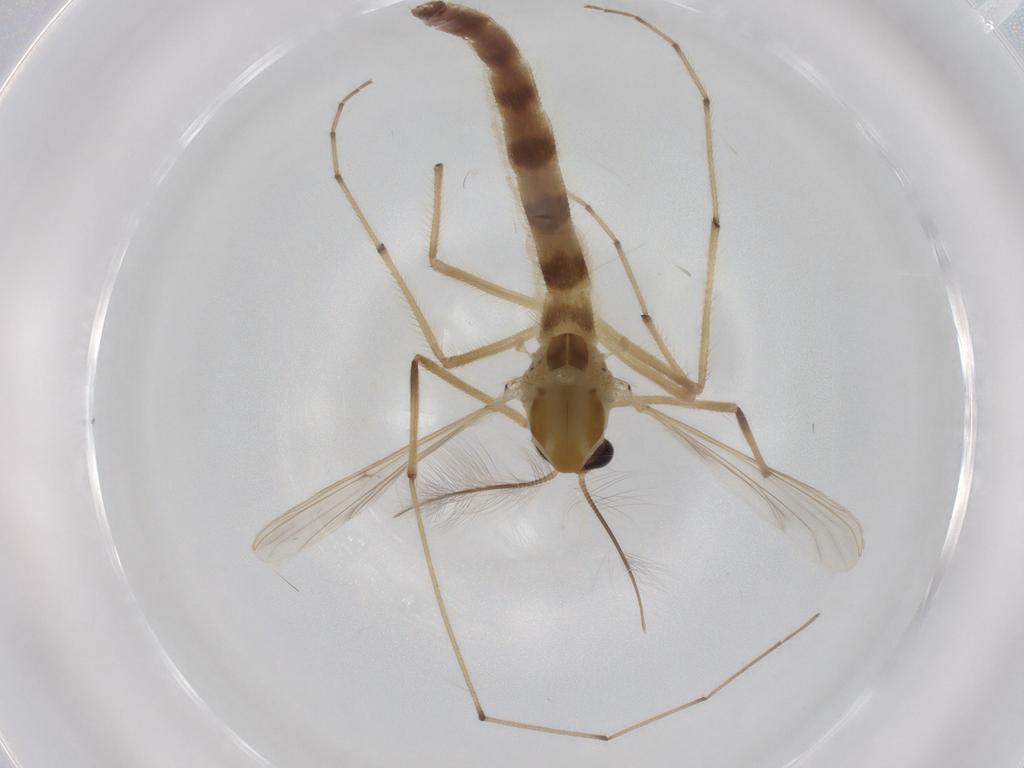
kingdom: Animalia
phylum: Arthropoda
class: Insecta
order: Diptera
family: Chironomidae
